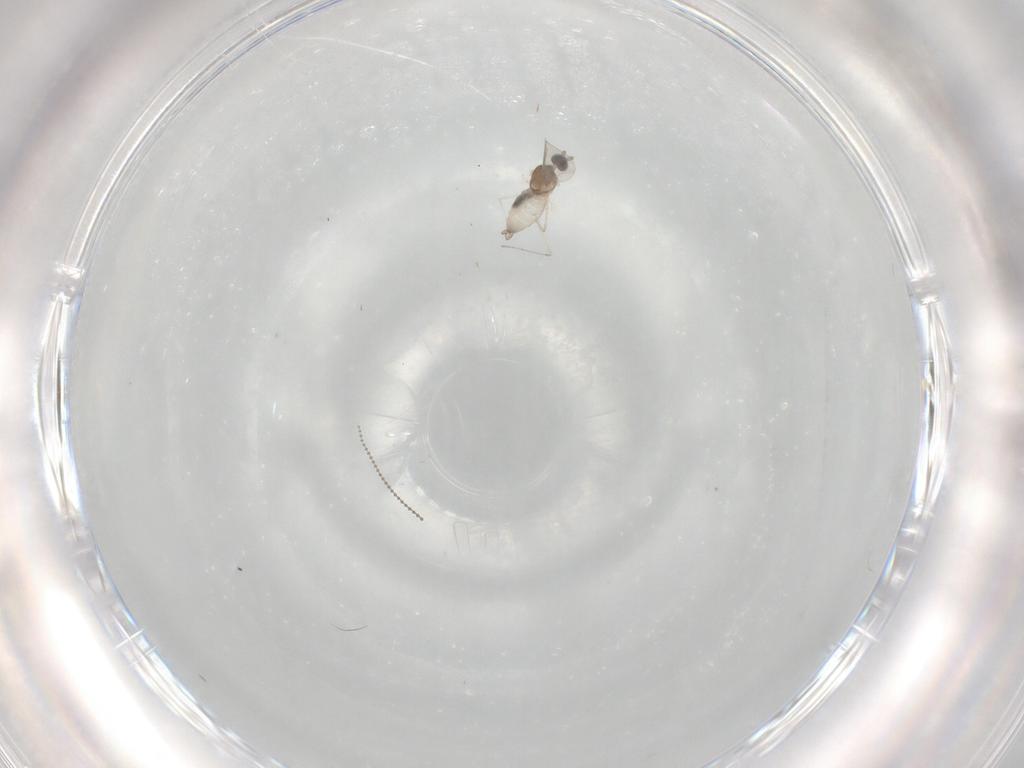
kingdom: Animalia
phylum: Arthropoda
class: Insecta
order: Diptera
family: Cecidomyiidae
